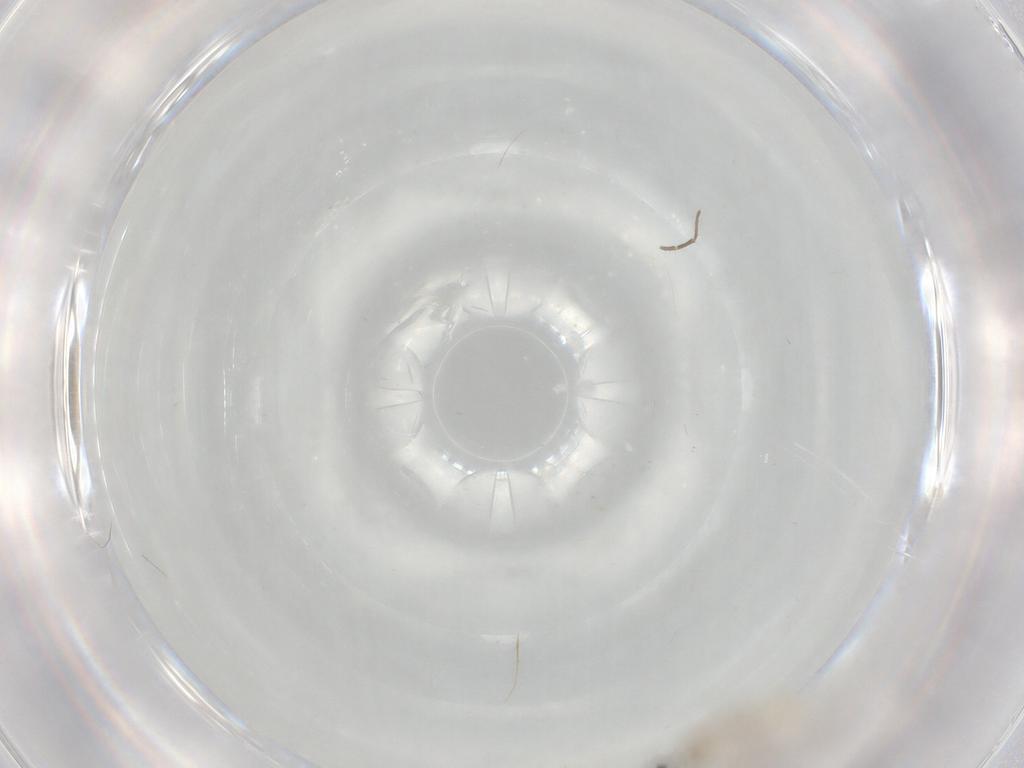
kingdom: Animalia
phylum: Arthropoda
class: Insecta
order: Diptera
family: Cecidomyiidae
